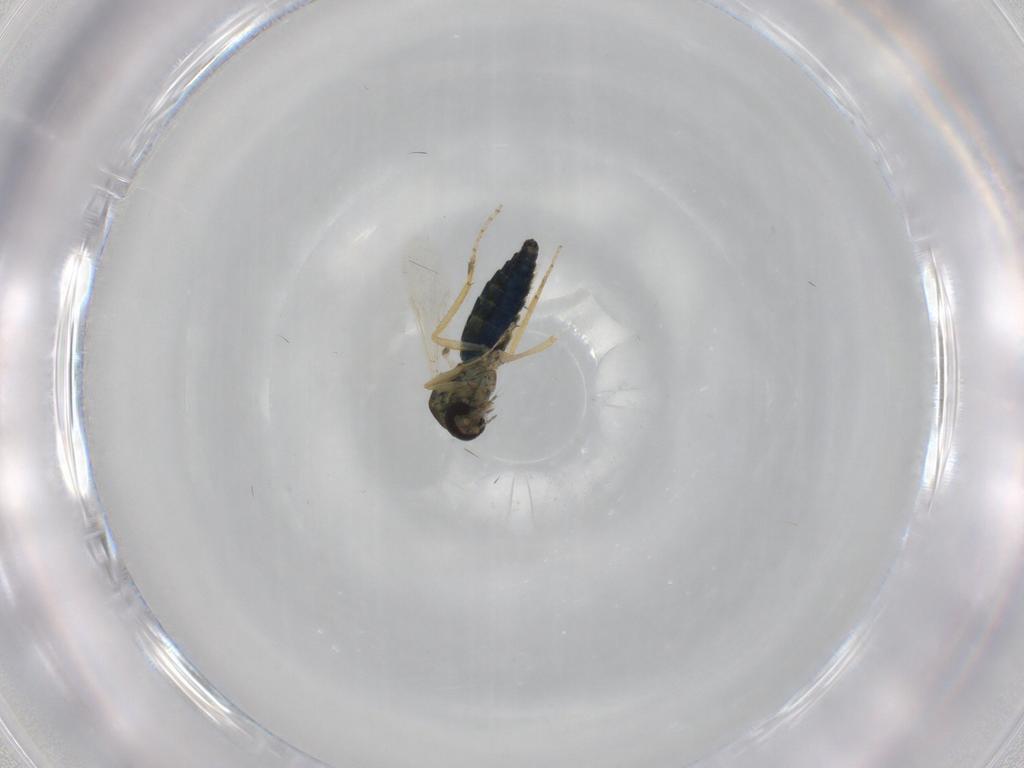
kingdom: Animalia
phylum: Arthropoda
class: Insecta
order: Diptera
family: Ceratopogonidae
